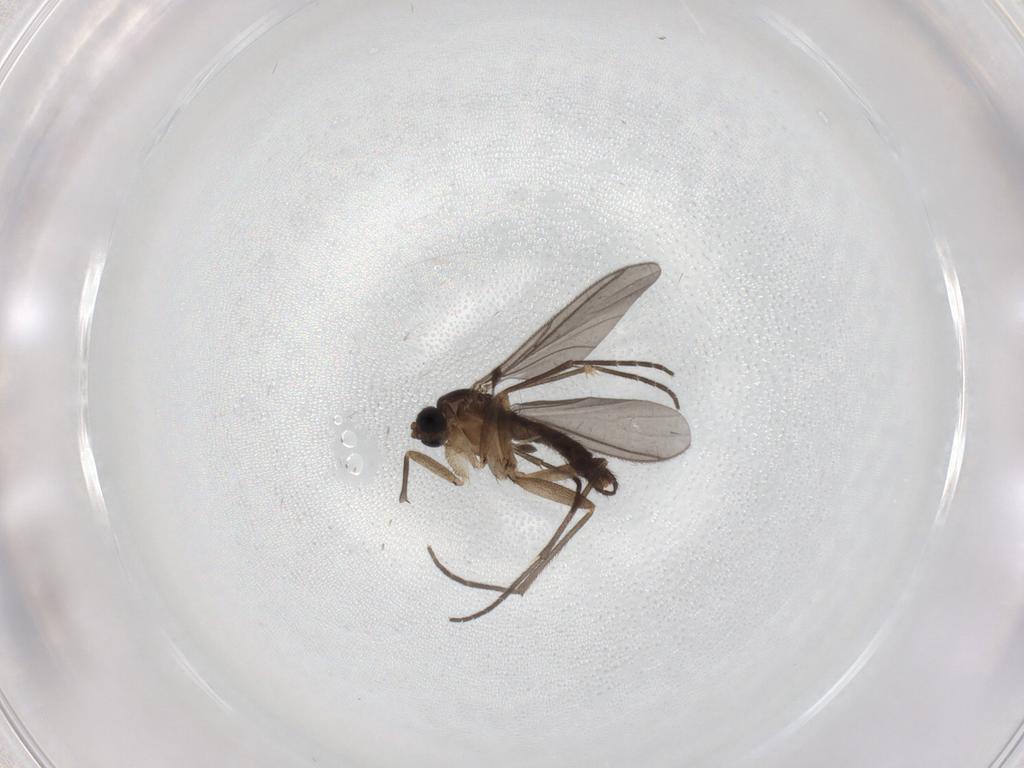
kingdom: Animalia
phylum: Arthropoda
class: Insecta
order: Diptera
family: Sciaridae
